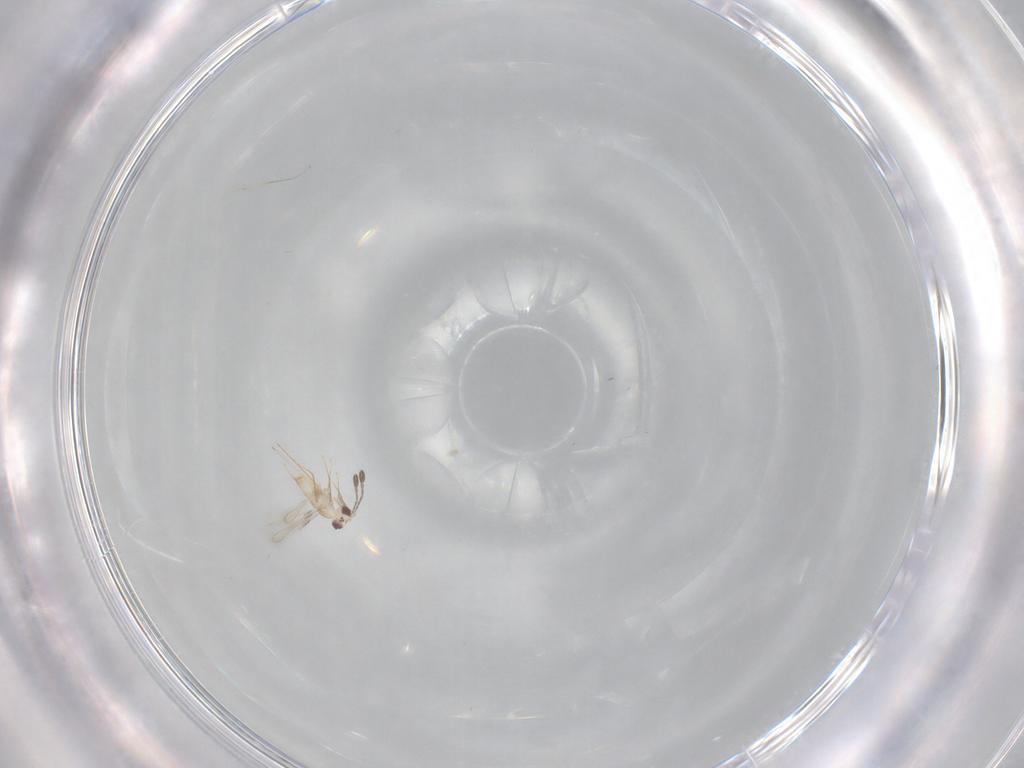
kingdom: Animalia
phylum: Arthropoda
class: Insecta
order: Hymenoptera
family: Mymaridae
